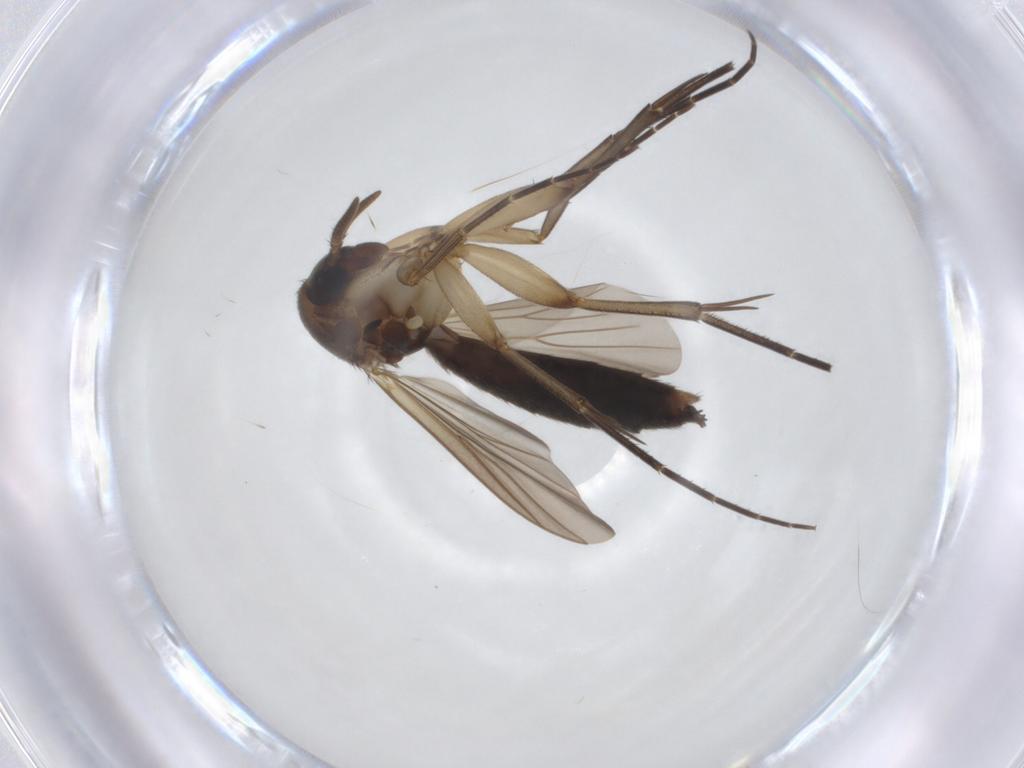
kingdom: Animalia
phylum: Arthropoda
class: Insecta
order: Diptera
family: Mycetophilidae
